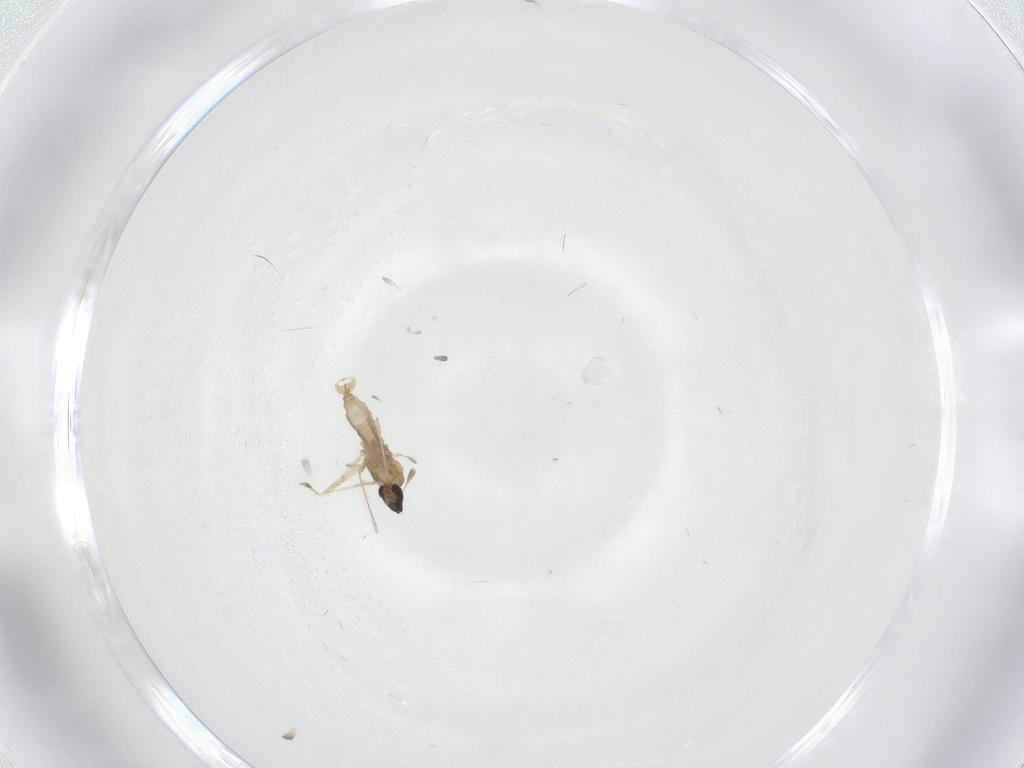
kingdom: Animalia
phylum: Arthropoda
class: Insecta
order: Diptera
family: Cecidomyiidae
